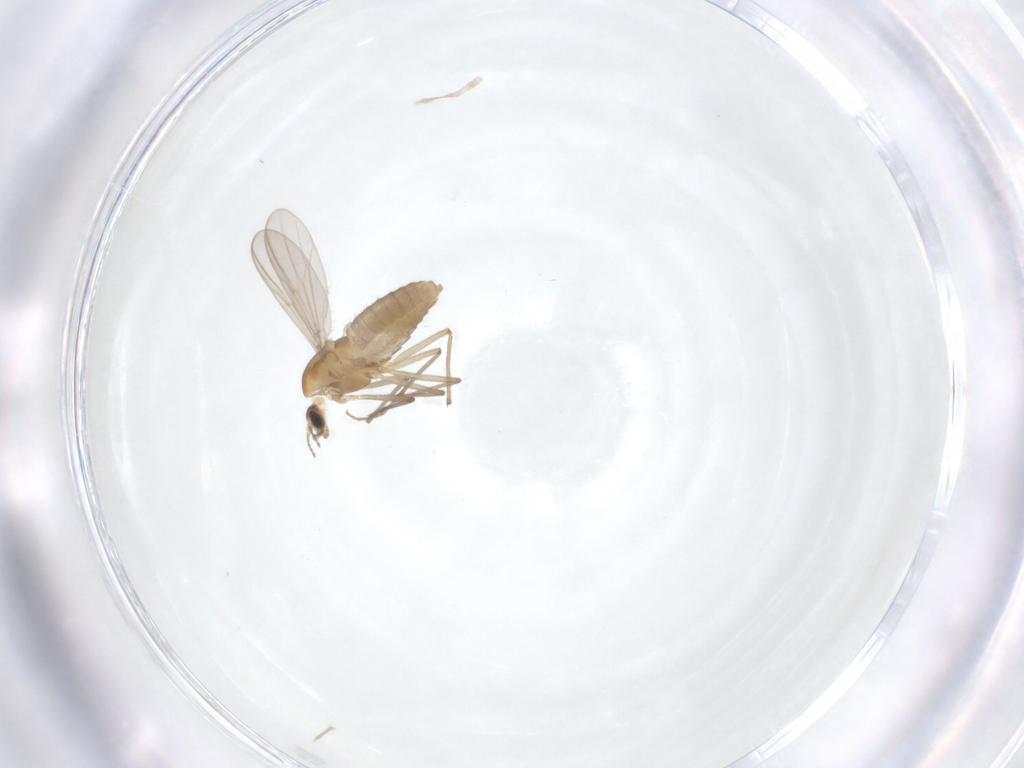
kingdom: Animalia
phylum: Arthropoda
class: Insecta
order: Diptera
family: Chironomidae
